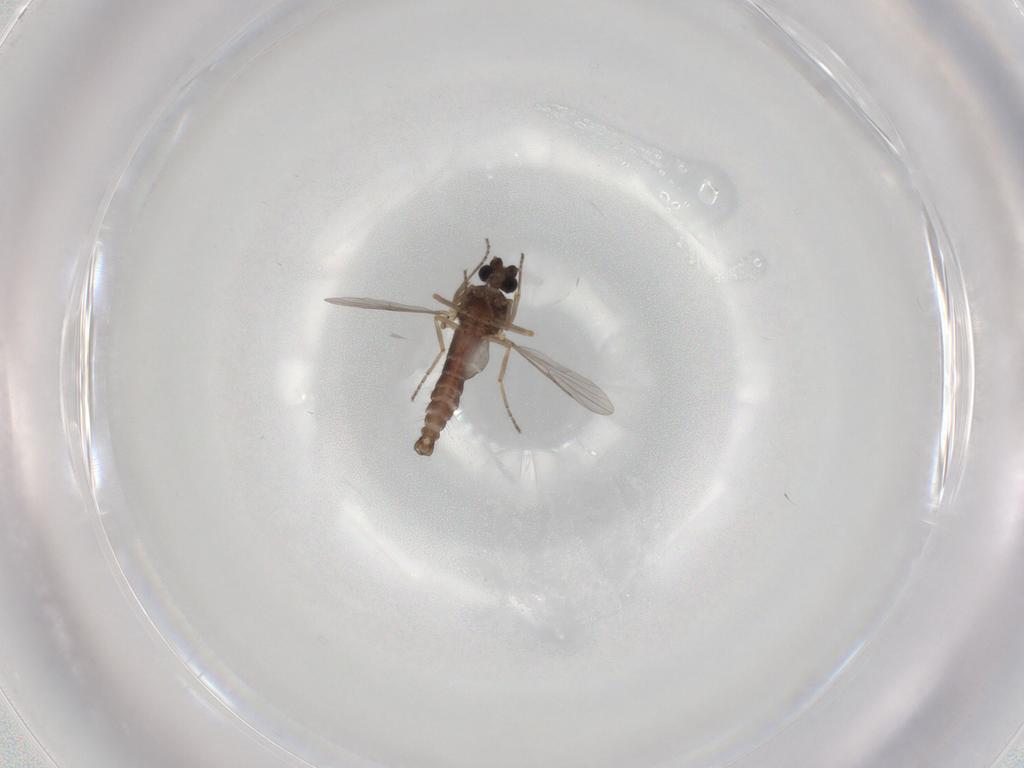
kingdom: Animalia
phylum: Arthropoda
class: Insecta
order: Diptera
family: Ceratopogonidae
